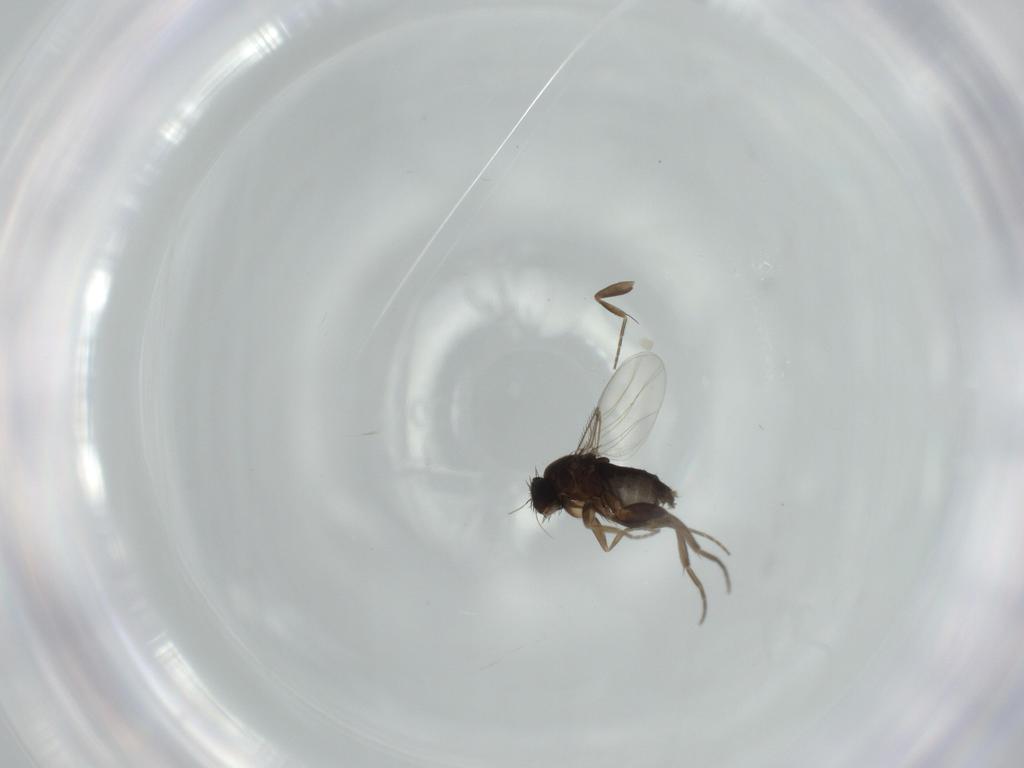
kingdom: Animalia
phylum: Arthropoda
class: Insecta
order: Diptera
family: Phoridae
